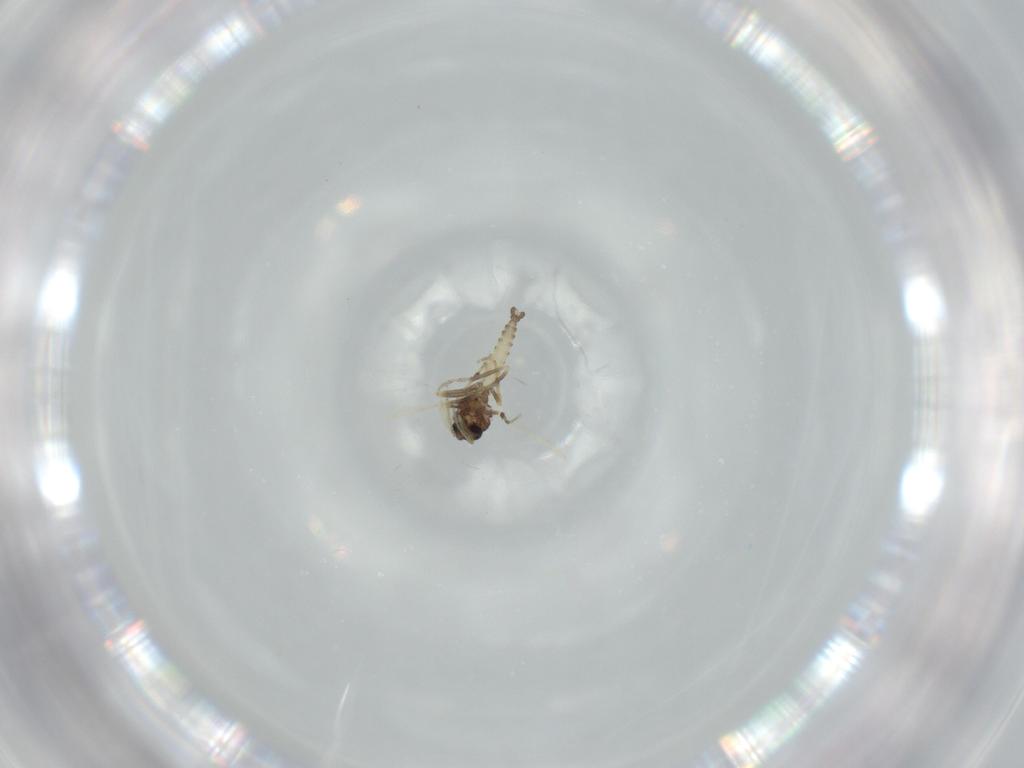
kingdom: Animalia
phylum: Arthropoda
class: Insecta
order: Diptera
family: Ceratopogonidae
